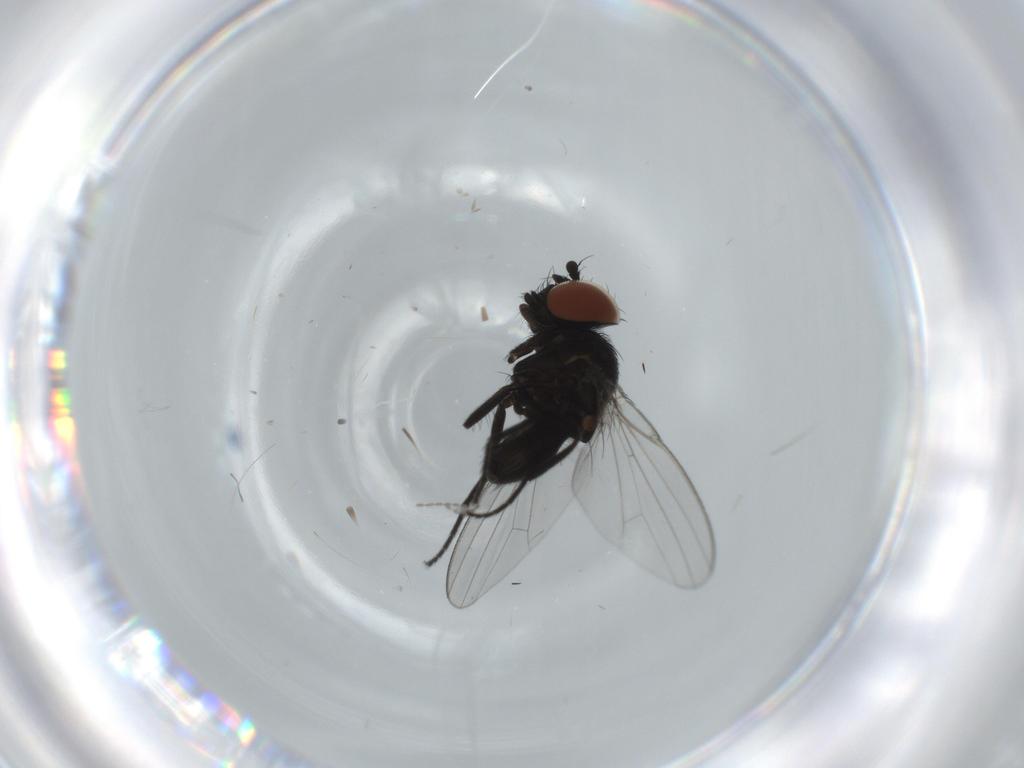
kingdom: Animalia
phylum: Arthropoda
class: Insecta
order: Diptera
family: Milichiidae
